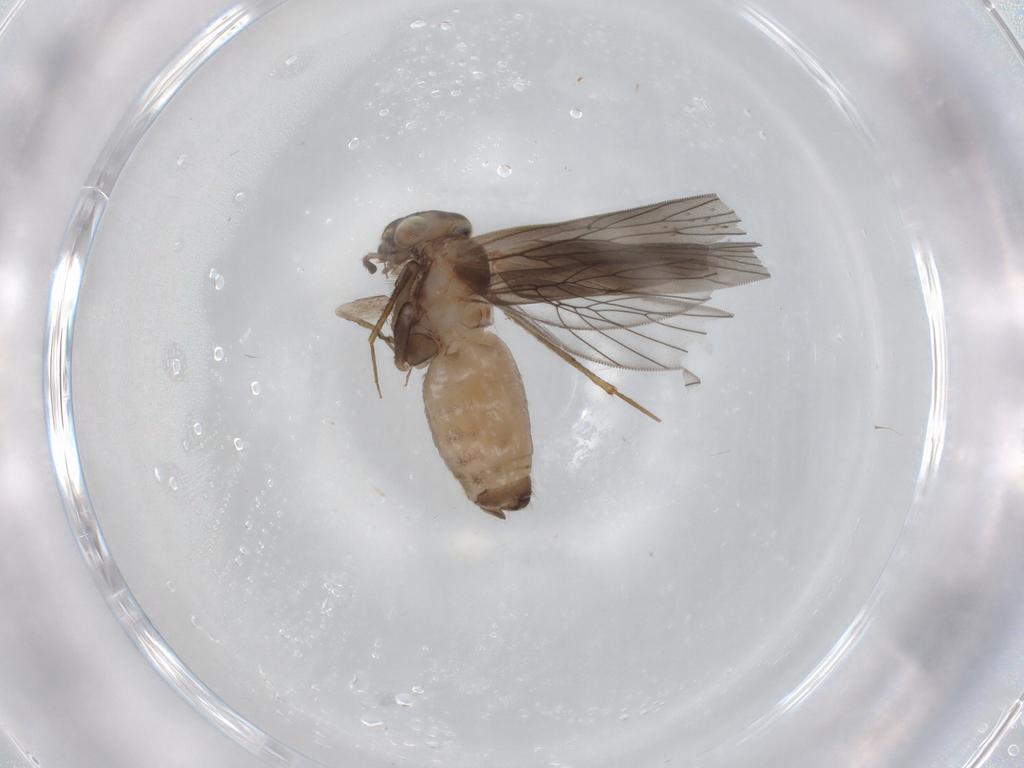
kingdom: Animalia
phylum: Arthropoda
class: Insecta
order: Psocodea
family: Lepidopsocidae
